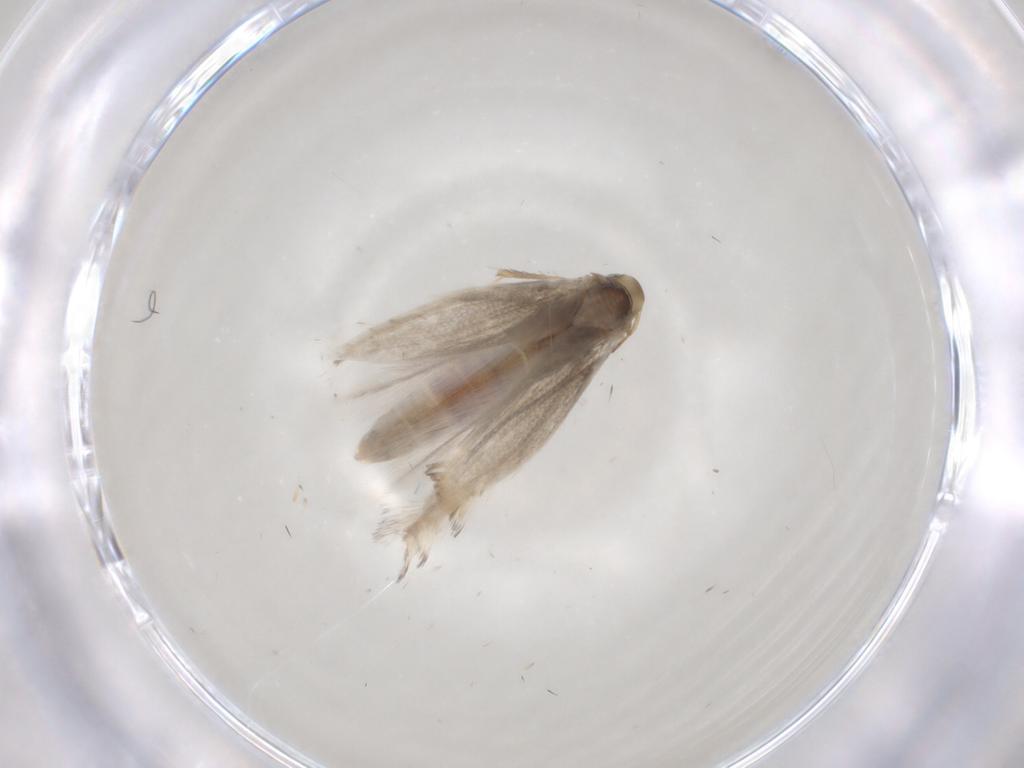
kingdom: Animalia
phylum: Arthropoda
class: Insecta
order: Lepidoptera
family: Gracillariidae
